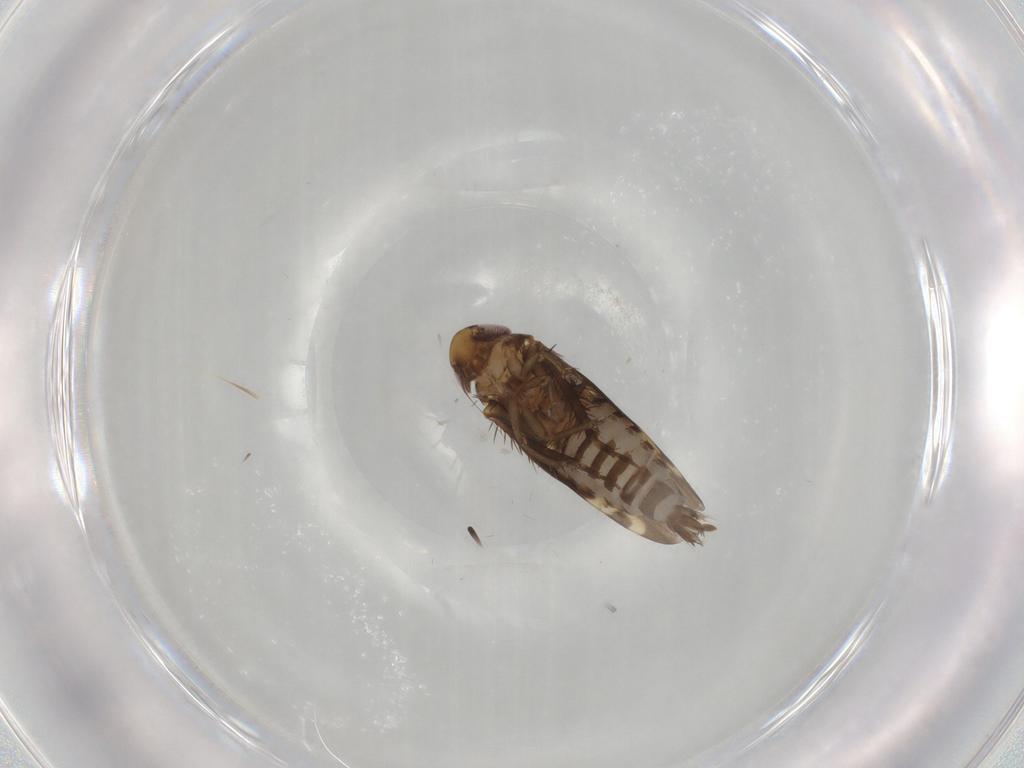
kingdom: Animalia
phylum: Arthropoda
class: Insecta
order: Hemiptera
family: Cicadellidae
